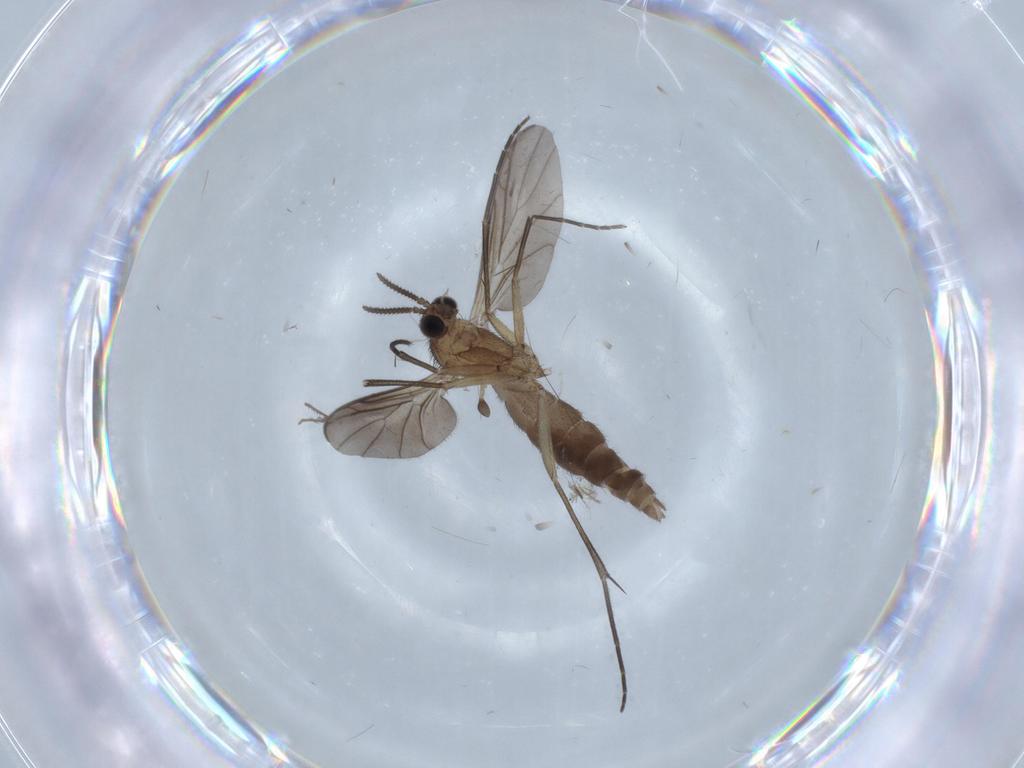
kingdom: Animalia
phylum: Arthropoda
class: Insecta
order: Diptera
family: Keroplatidae
